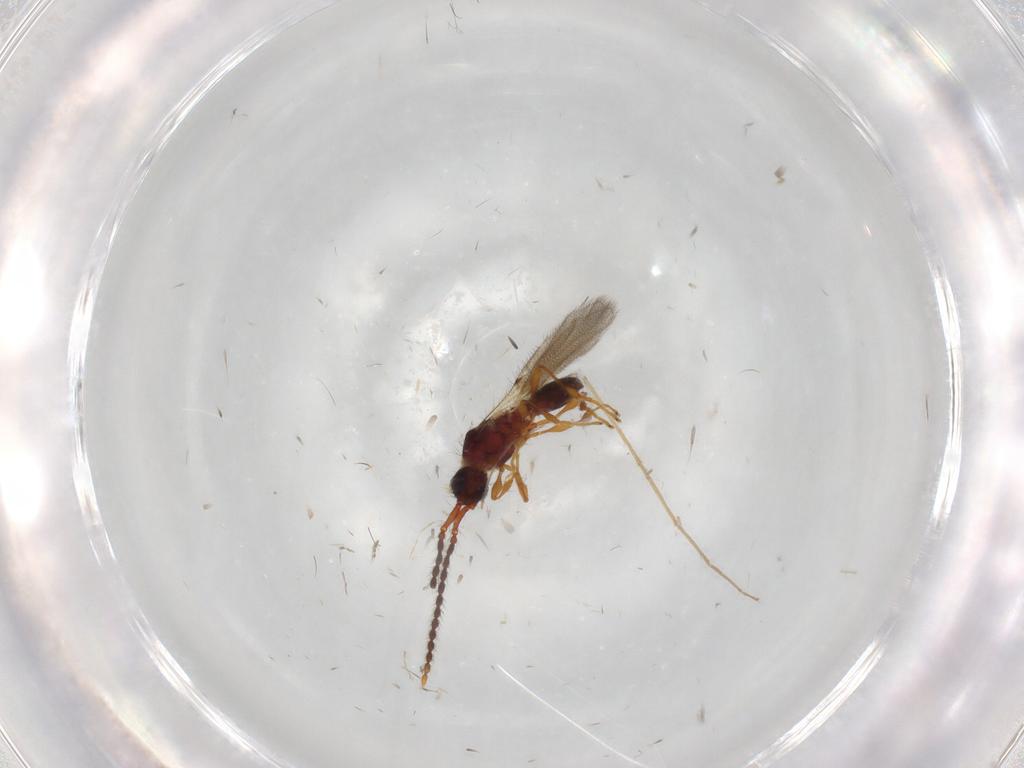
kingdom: Animalia
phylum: Arthropoda
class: Insecta
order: Hymenoptera
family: Diapriidae
